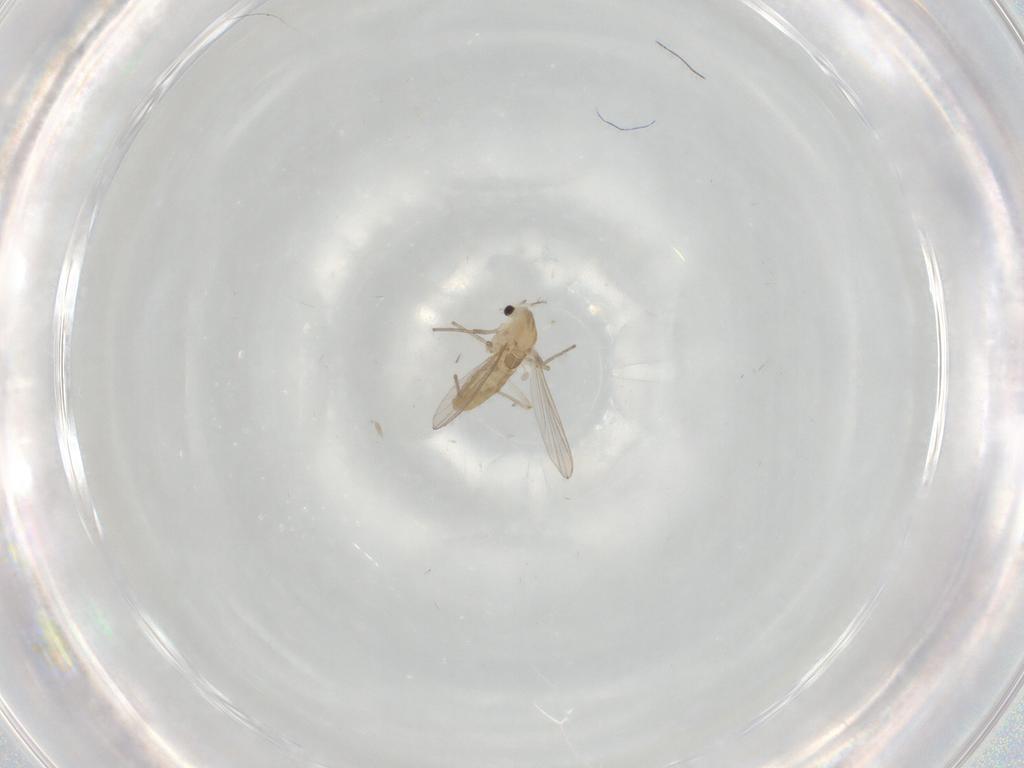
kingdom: Animalia
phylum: Arthropoda
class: Insecta
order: Diptera
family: Chironomidae
